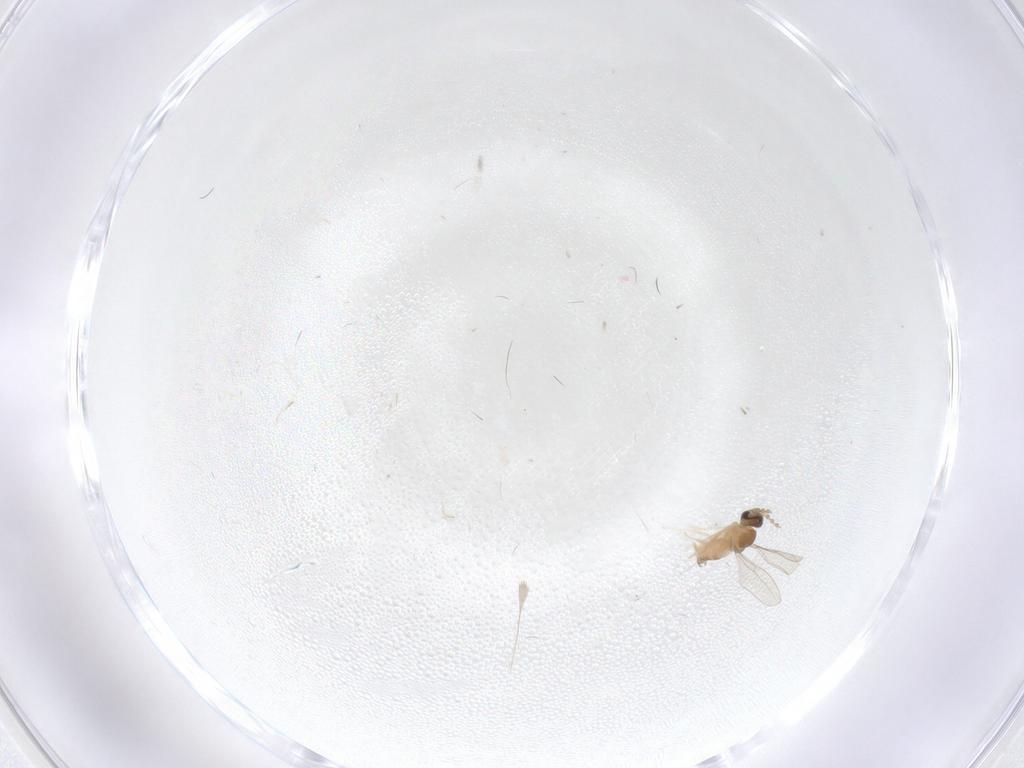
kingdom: Animalia
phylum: Arthropoda
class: Insecta
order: Diptera
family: Cecidomyiidae
